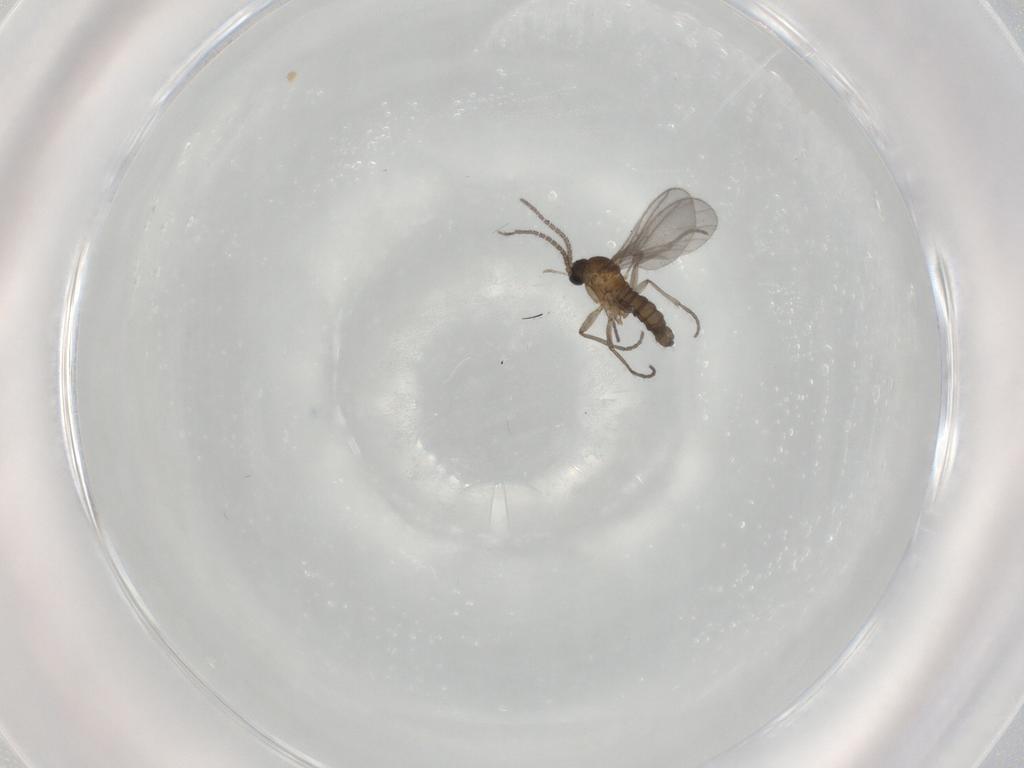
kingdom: Animalia
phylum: Arthropoda
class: Insecta
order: Diptera
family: Sciaridae
